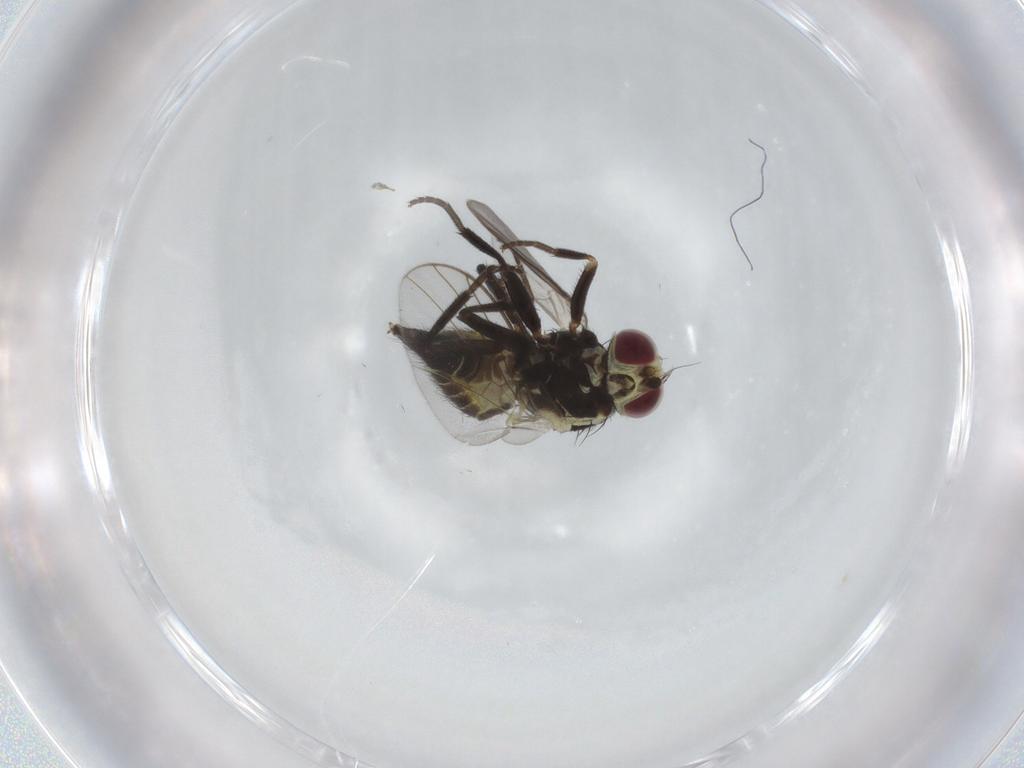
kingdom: Animalia
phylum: Arthropoda
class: Insecta
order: Diptera
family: Agromyzidae
